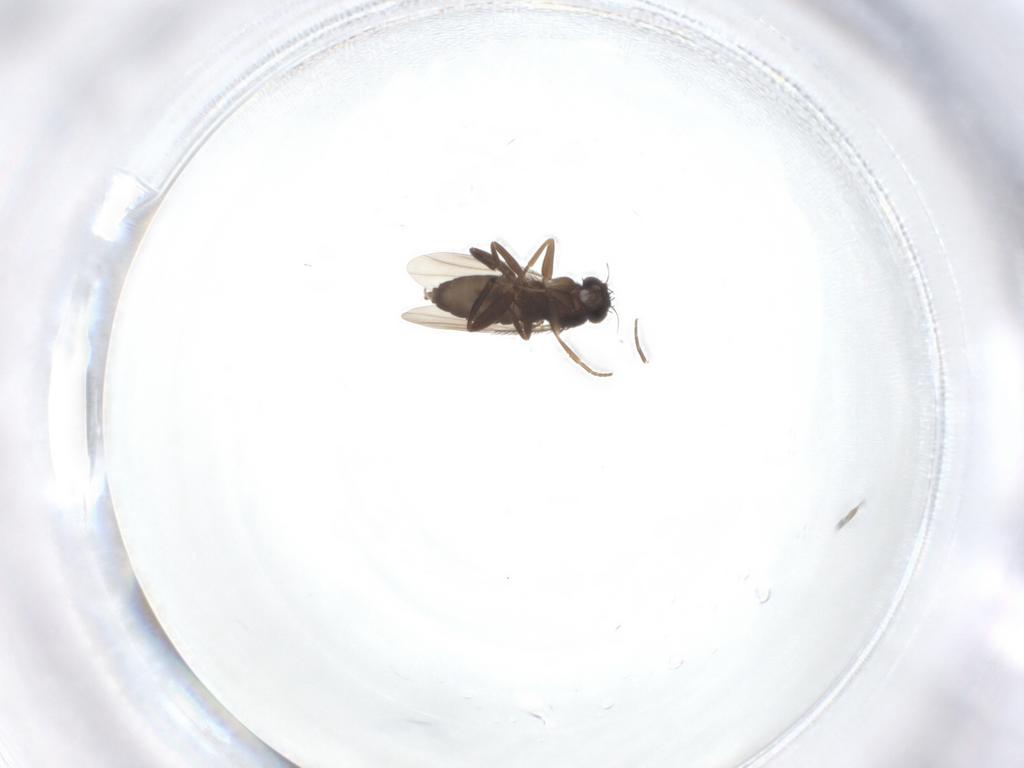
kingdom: Animalia
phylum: Arthropoda
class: Insecta
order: Diptera
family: Phoridae
